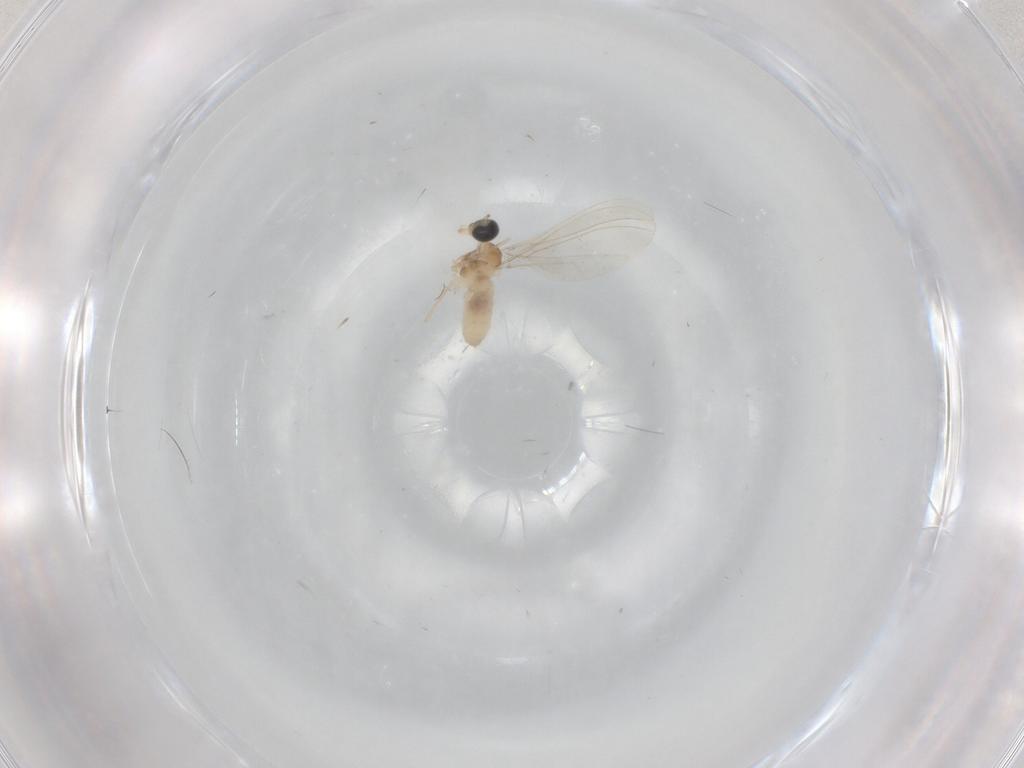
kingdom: Animalia
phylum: Arthropoda
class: Insecta
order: Diptera
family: Cecidomyiidae
